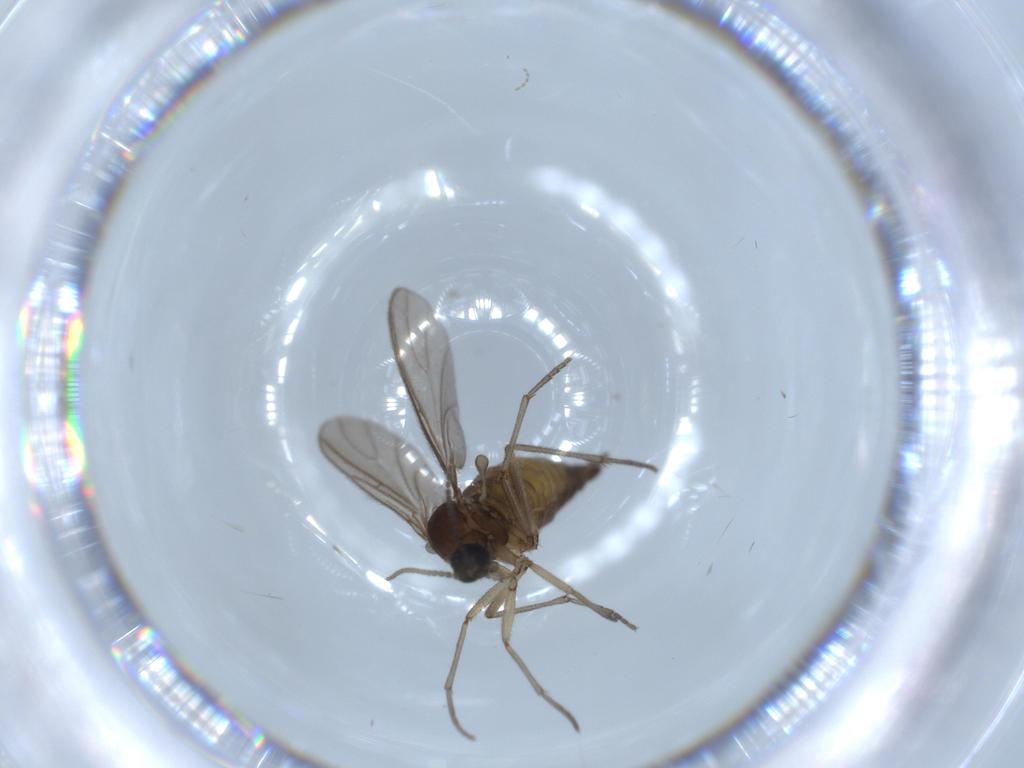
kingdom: Animalia
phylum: Arthropoda
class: Insecta
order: Diptera
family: Sciaridae
